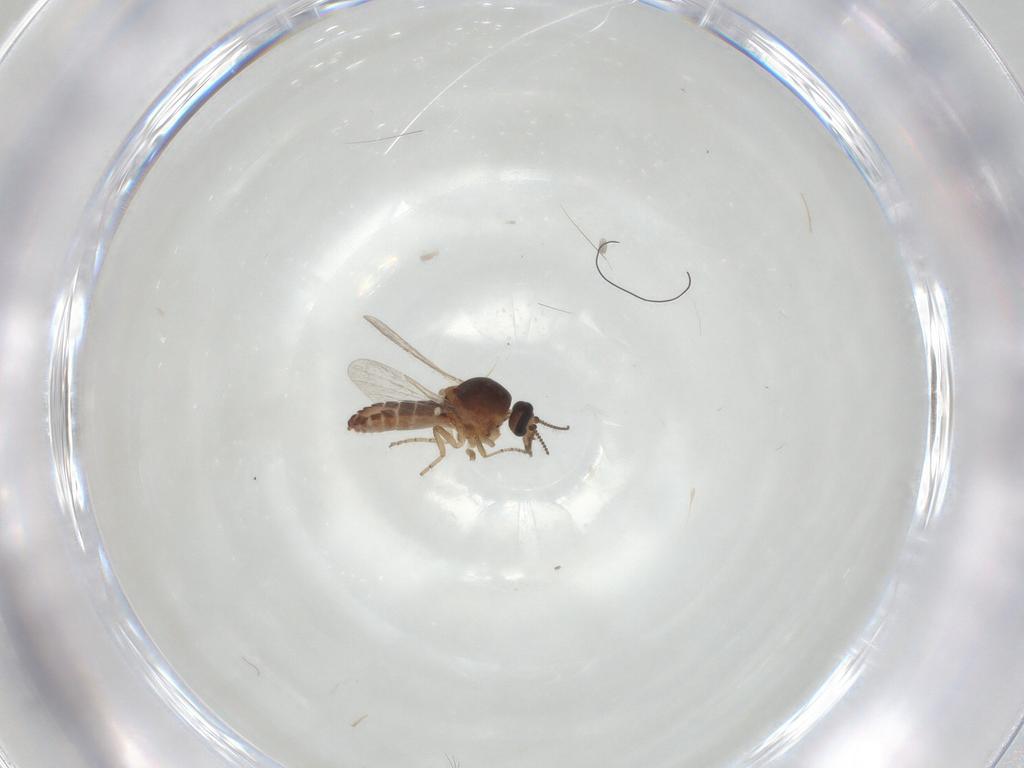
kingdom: Animalia
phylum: Arthropoda
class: Insecta
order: Diptera
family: Ceratopogonidae
